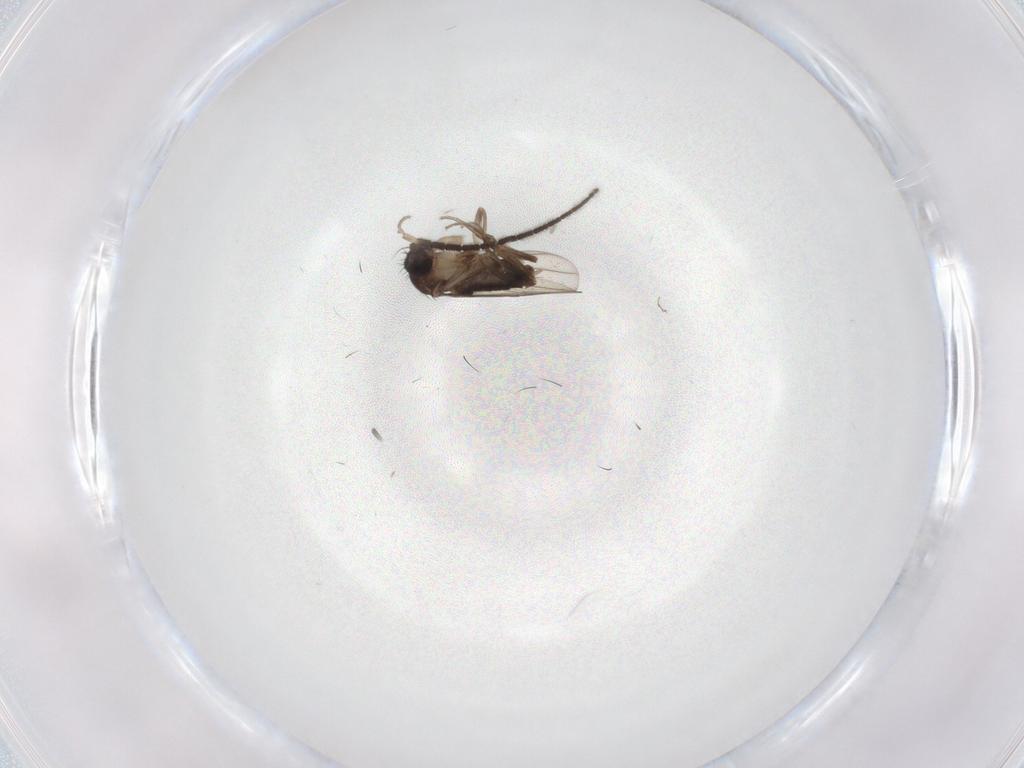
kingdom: Animalia
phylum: Arthropoda
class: Insecta
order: Diptera
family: Phoridae
